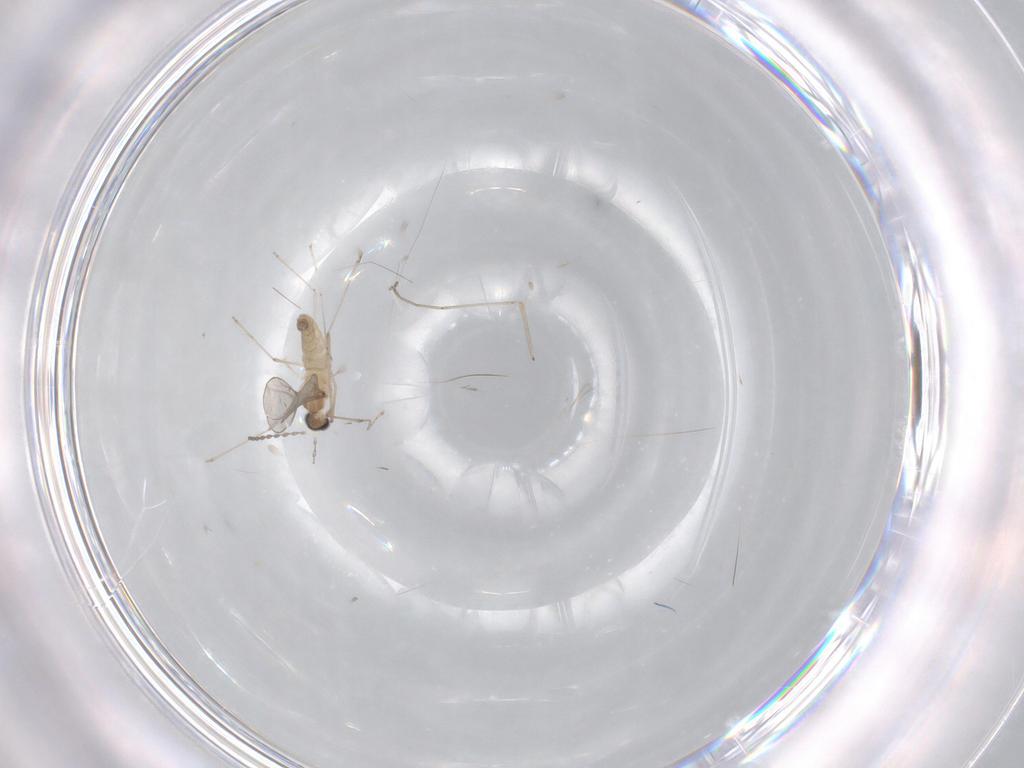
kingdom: Animalia
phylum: Arthropoda
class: Insecta
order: Diptera
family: Cecidomyiidae
